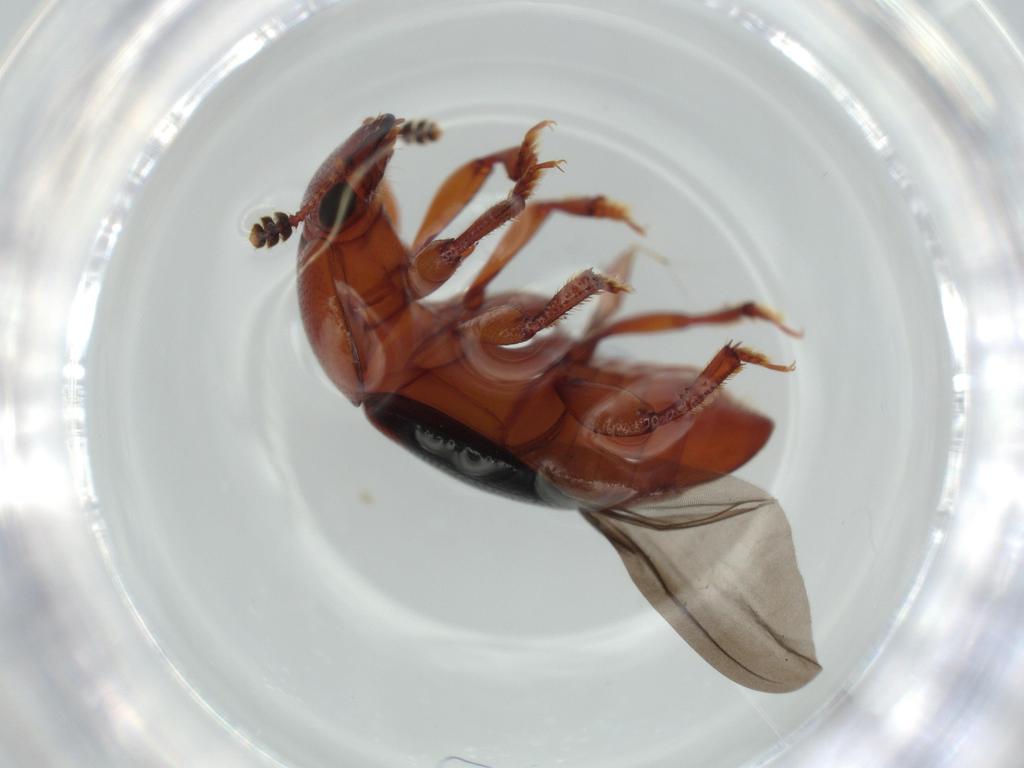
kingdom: Animalia
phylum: Arthropoda
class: Insecta
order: Coleoptera
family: Nitidulidae
